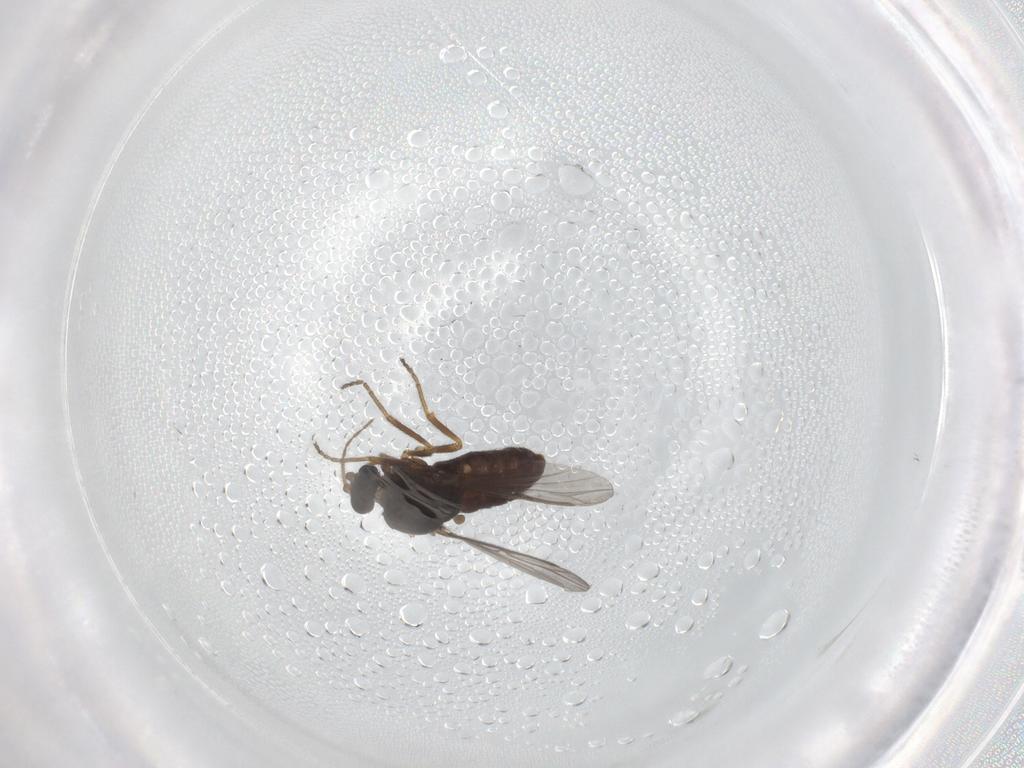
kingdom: Animalia
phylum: Arthropoda
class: Insecta
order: Diptera
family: Ceratopogonidae
